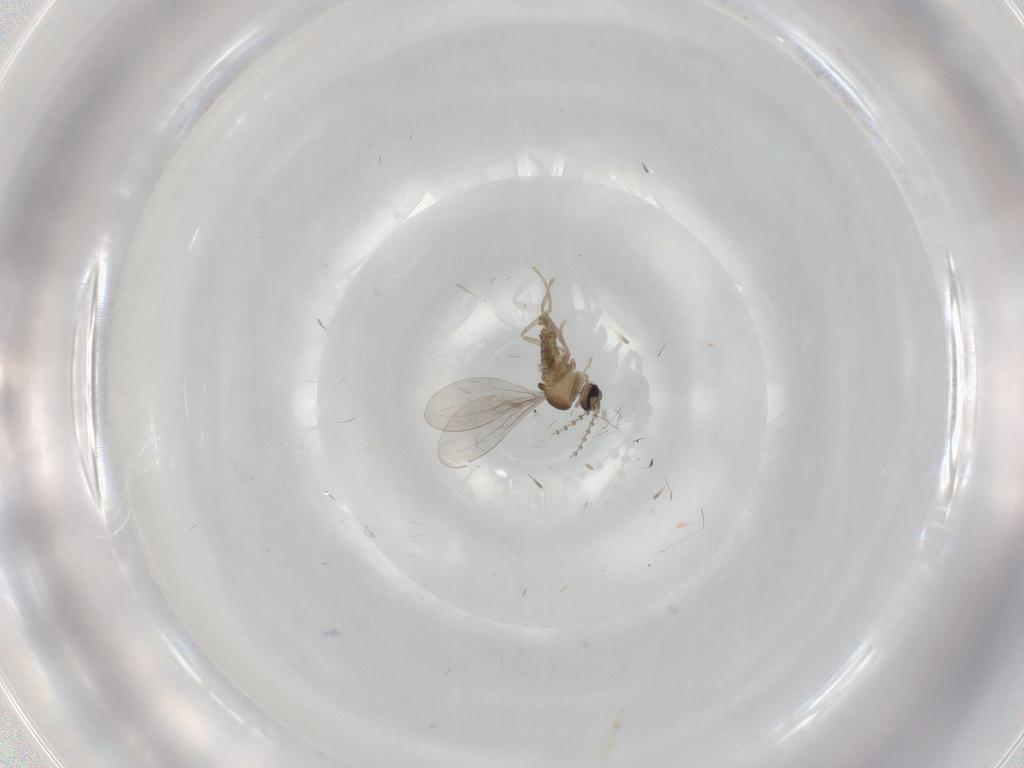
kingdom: Animalia
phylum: Arthropoda
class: Insecta
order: Diptera
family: Cecidomyiidae
